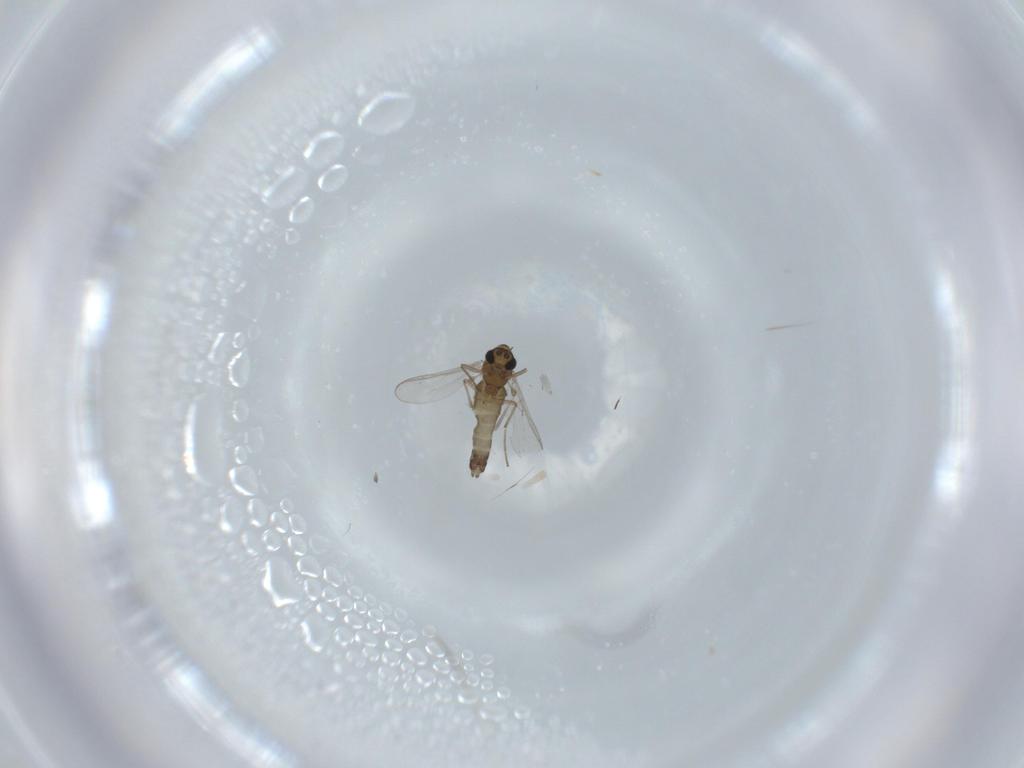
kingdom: Animalia
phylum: Arthropoda
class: Insecta
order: Diptera
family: Chironomidae
